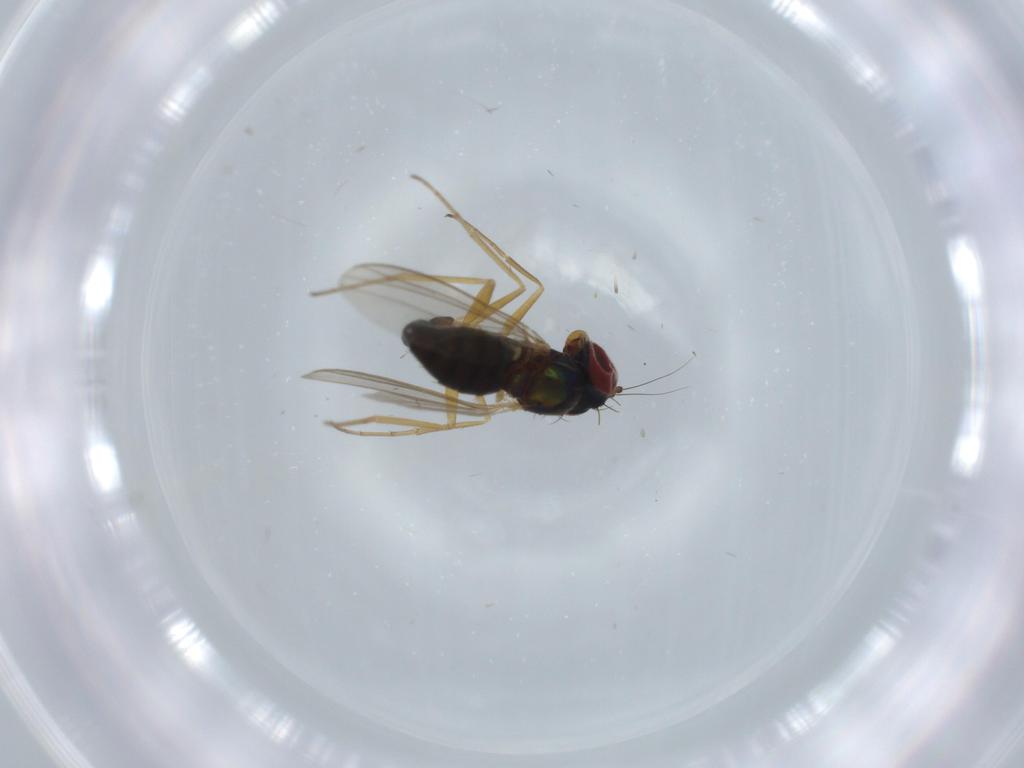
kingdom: Animalia
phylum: Arthropoda
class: Insecta
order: Diptera
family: Dolichopodidae
